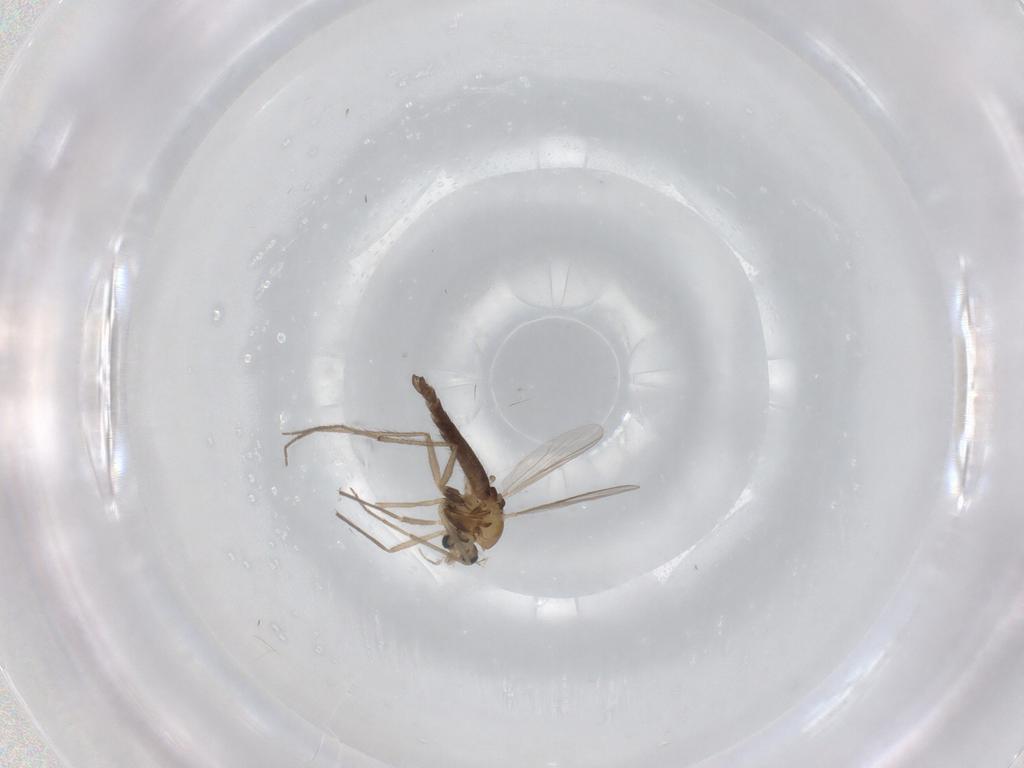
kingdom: Animalia
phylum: Arthropoda
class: Insecta
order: Diptera
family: Chironomidae
